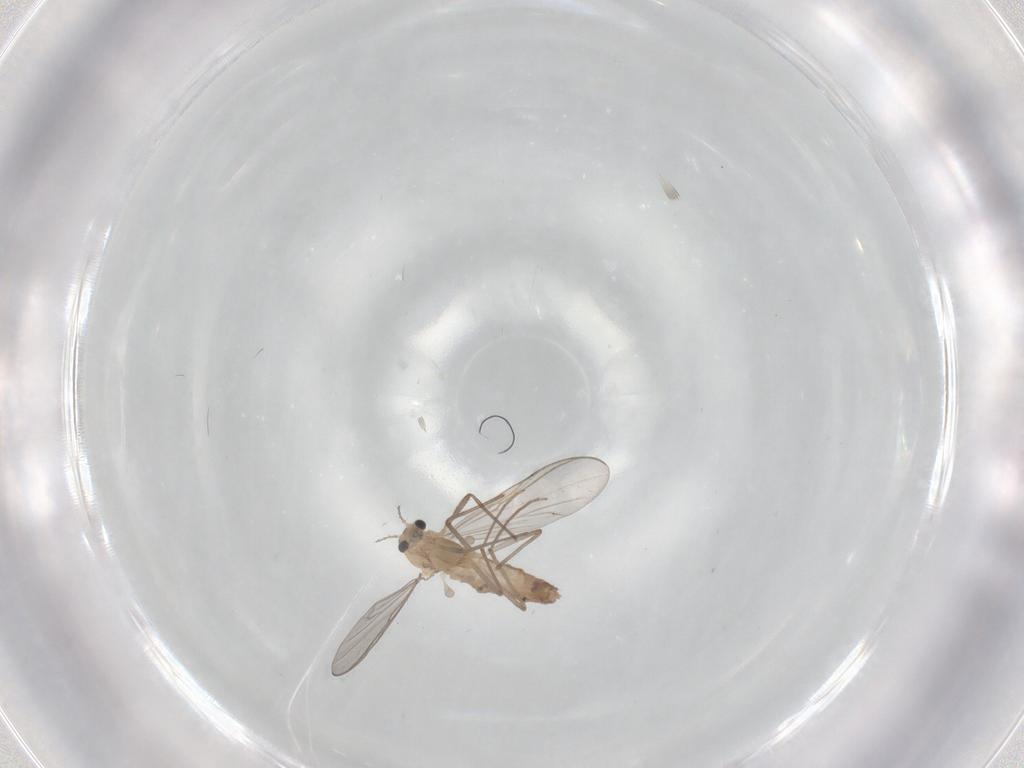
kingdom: Animalia
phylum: Arthropoda
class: Insecta
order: Diptera
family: Chironomidae
